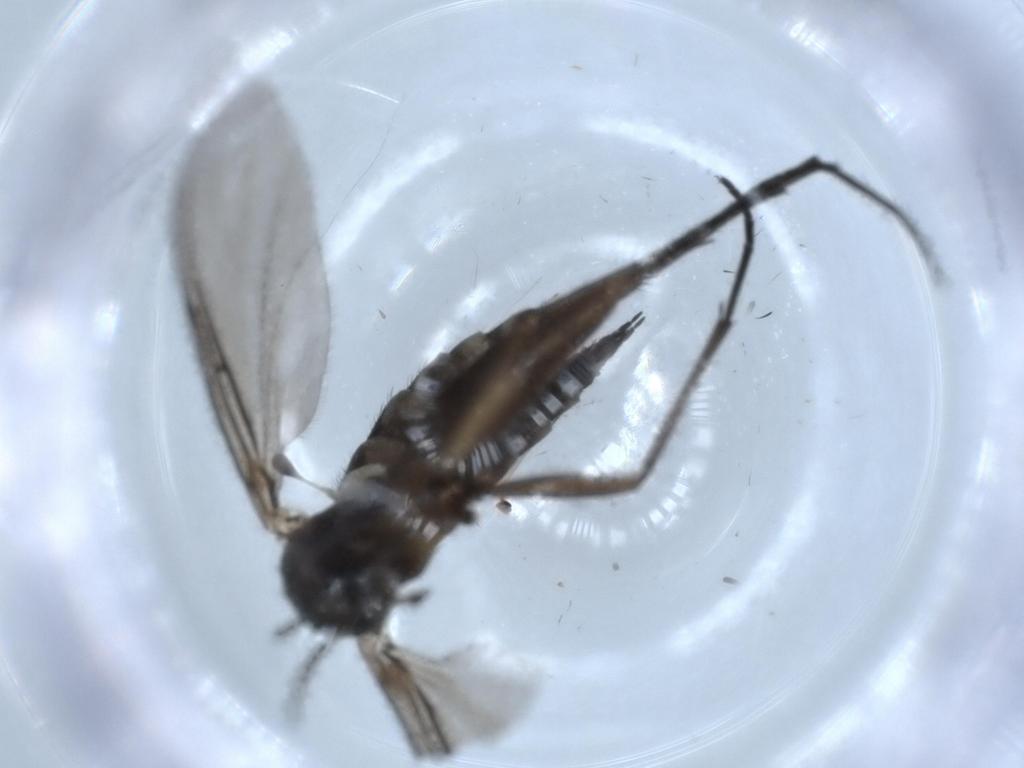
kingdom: Animalia
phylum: Arthropoda
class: Insecta
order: Diptera
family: Sciaridae
